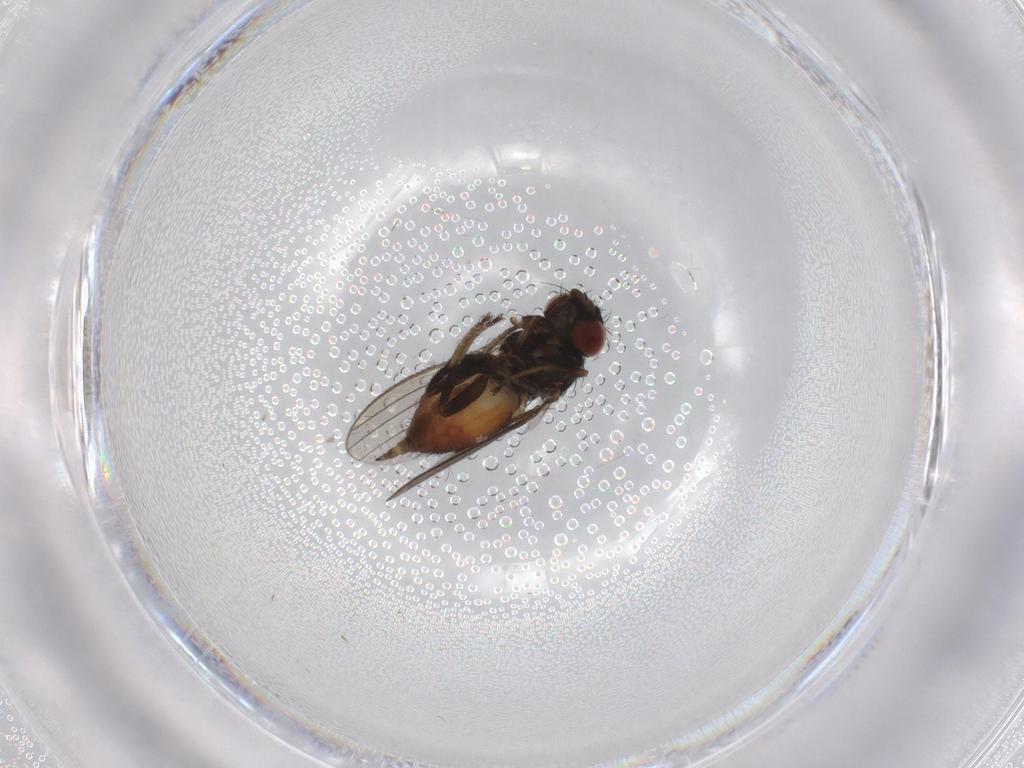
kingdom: Animalia
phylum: Arthropoda
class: Insecta
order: Diptera
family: Milichiidae
